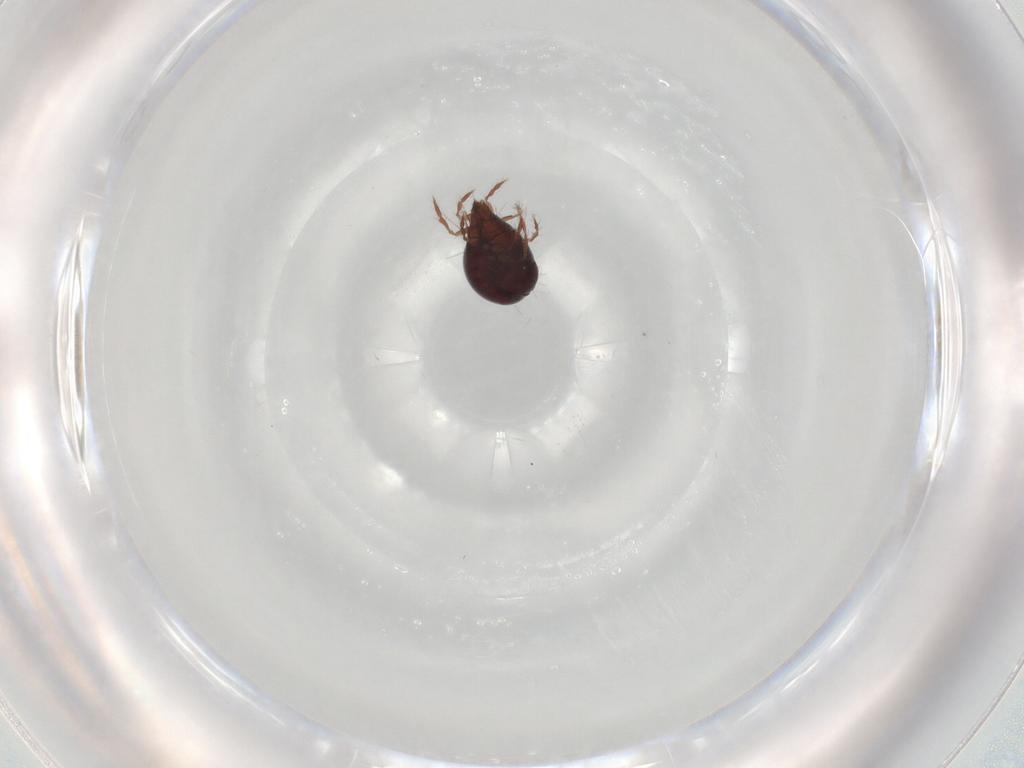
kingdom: Animalia
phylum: Arthropoda
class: Arachnida
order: Sarcoptiformes
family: Ceratoppiidae
